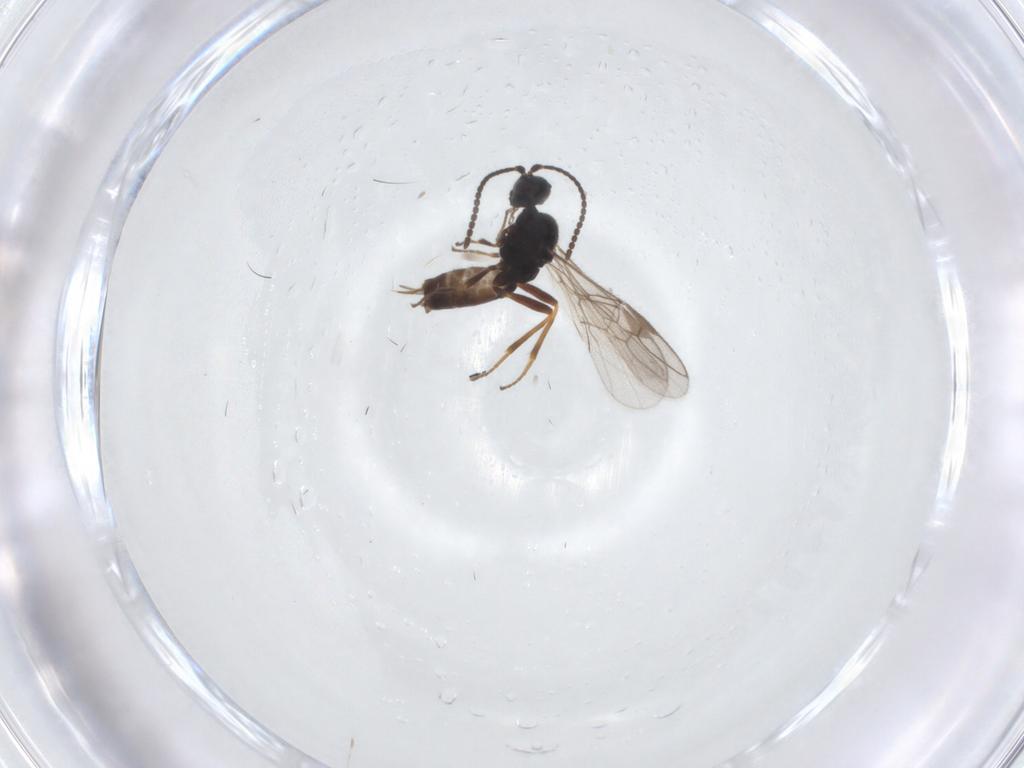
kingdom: Animalia
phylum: Arthropoda
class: Insecta
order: Hymenoptera
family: Braconidae
